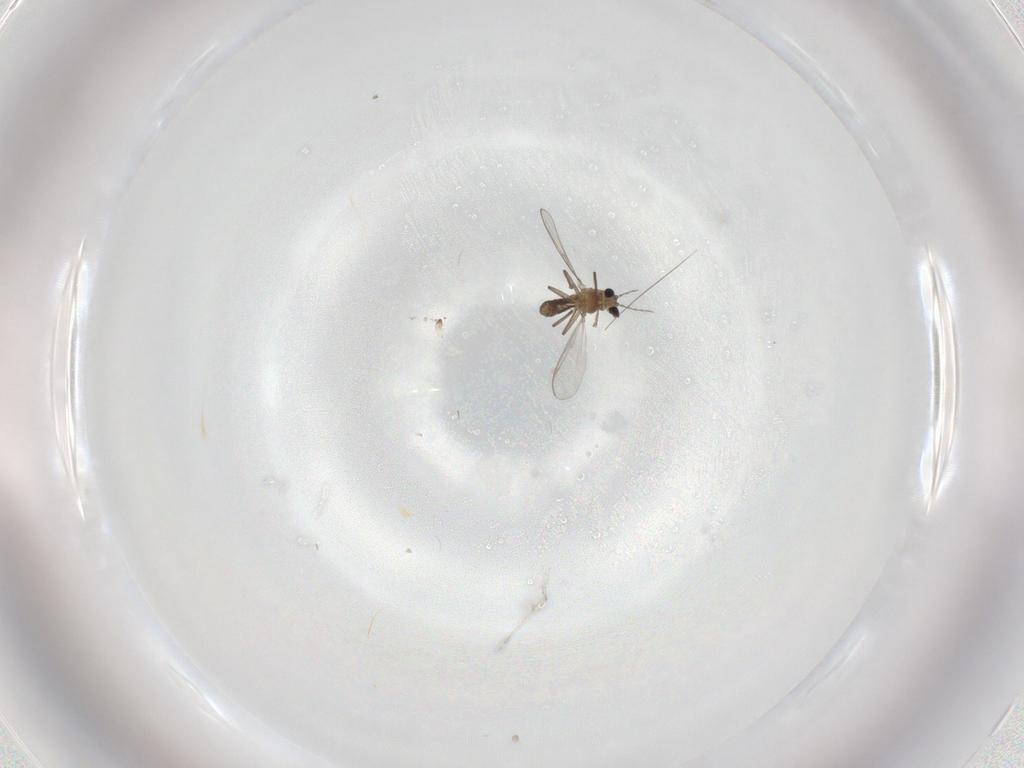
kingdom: Animalia
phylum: Arthropoda
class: Insecta
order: Diptera
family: Chironomidae
